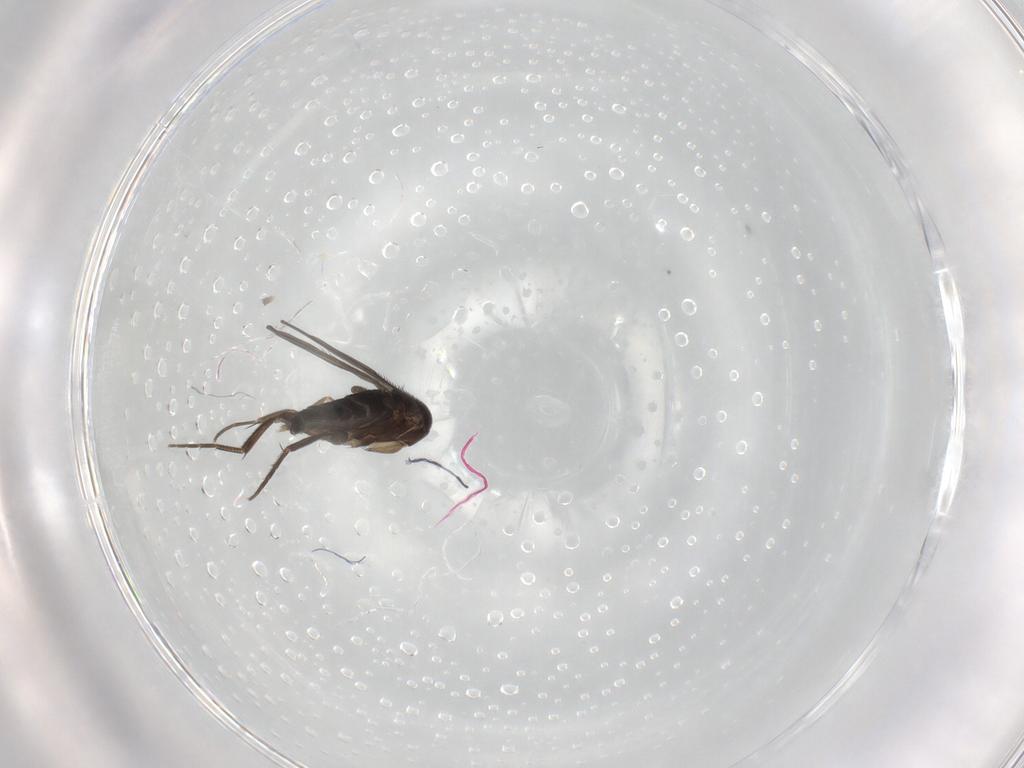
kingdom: Animalia
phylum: Arthropoda
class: Insecta
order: Diptera
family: Phoridae
